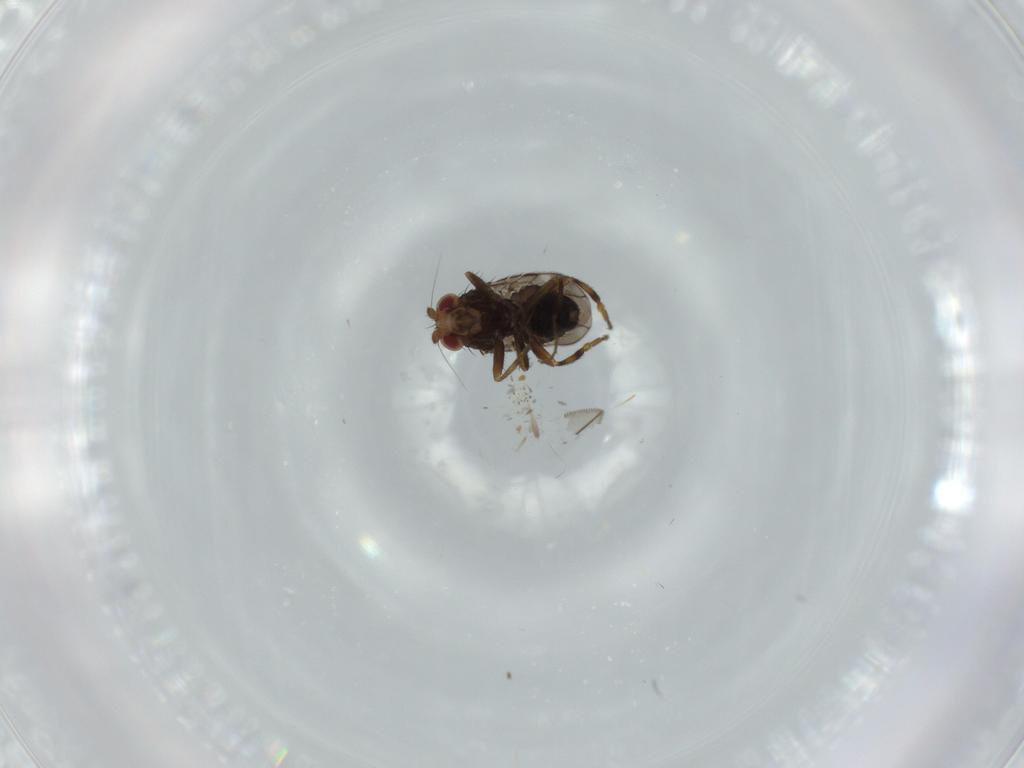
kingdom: Animalia
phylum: Arthropoda
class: Insecta
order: Diptera
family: Sphaeroceridae
